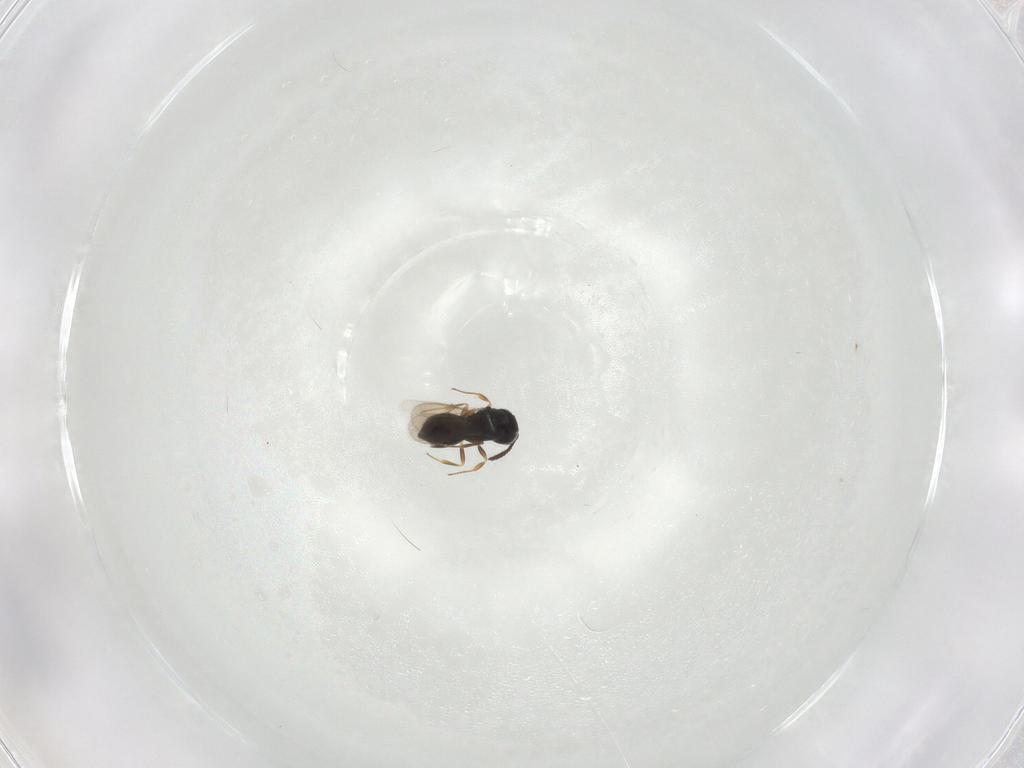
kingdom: Animalia
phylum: Arthropoda
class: Insecta
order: Hymenoptera
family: Scelionidae
